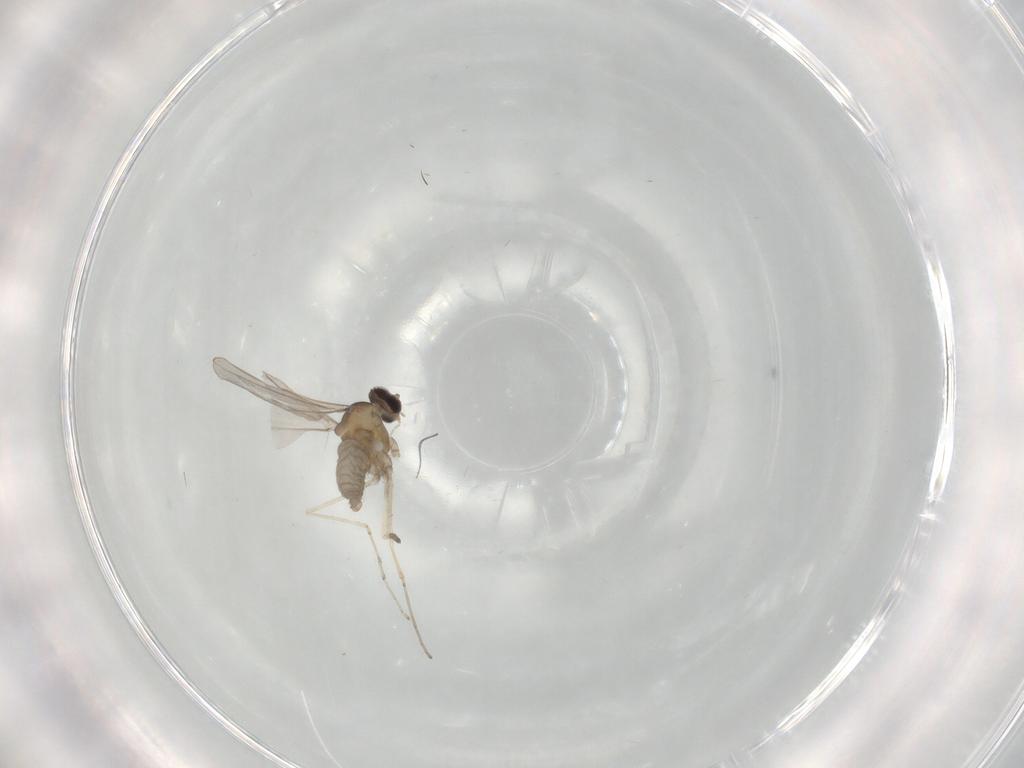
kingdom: Animalia
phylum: Arthropoda
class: Insecta
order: Diptera
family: Cecidomyiidae
